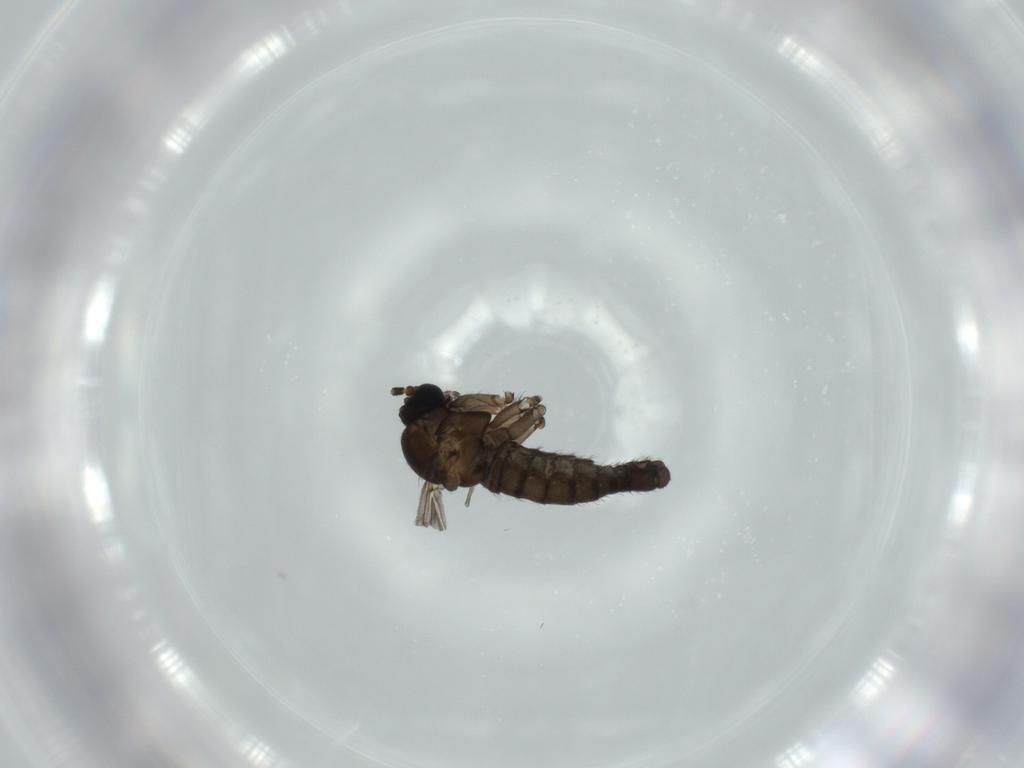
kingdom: Animalia
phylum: Arthropoda
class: Insecta
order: Diptera
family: Sciaridae
